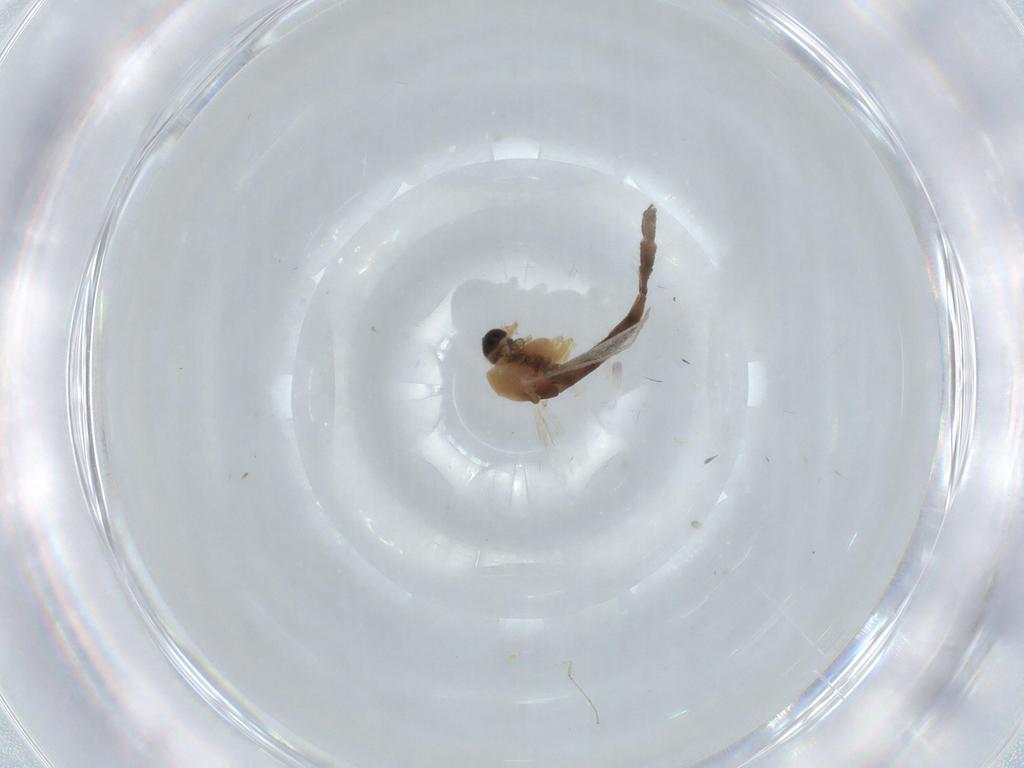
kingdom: Animalia
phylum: Arthropoda
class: Insecta
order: Diptera
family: Chironomidae
